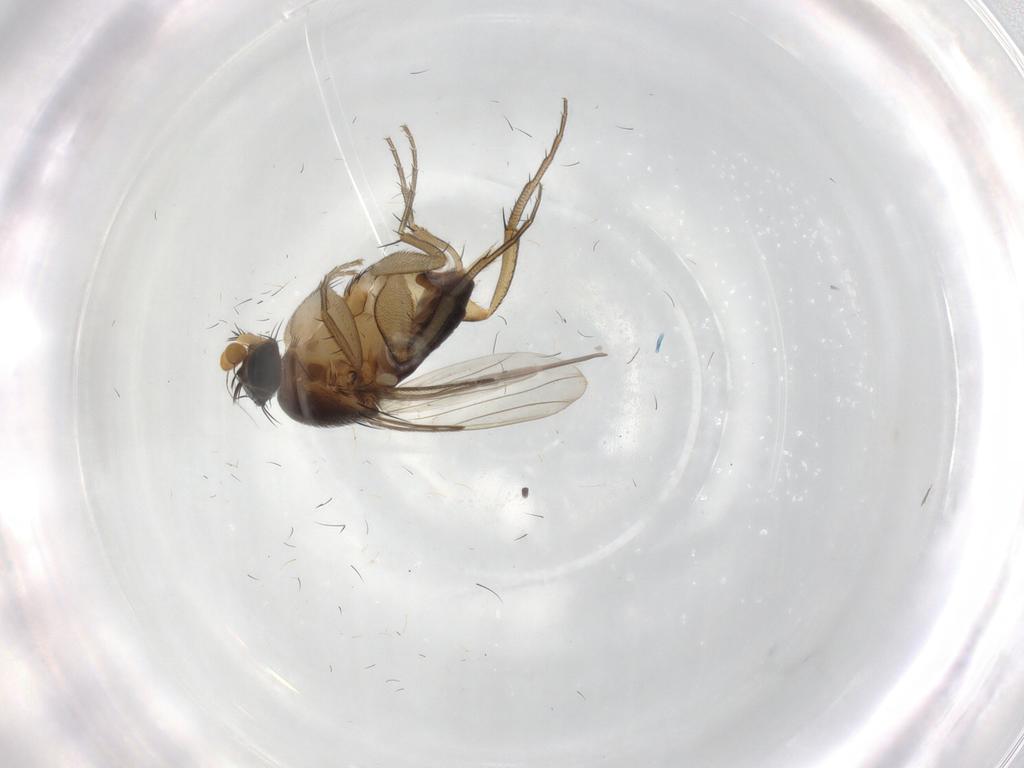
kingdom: Animalia
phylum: Arthropoda
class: Insecta
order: Diptera
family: Phoridae
